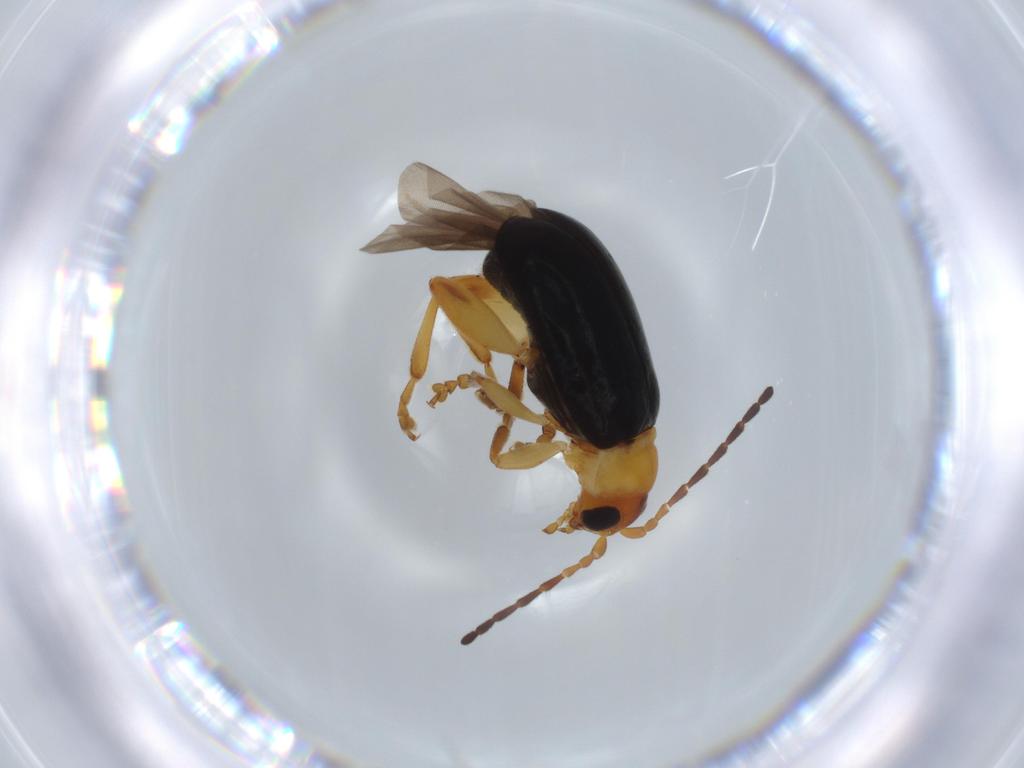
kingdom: Animalia
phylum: Arthropoda
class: Insecta
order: Coleoptera
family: Chrysomelidae
